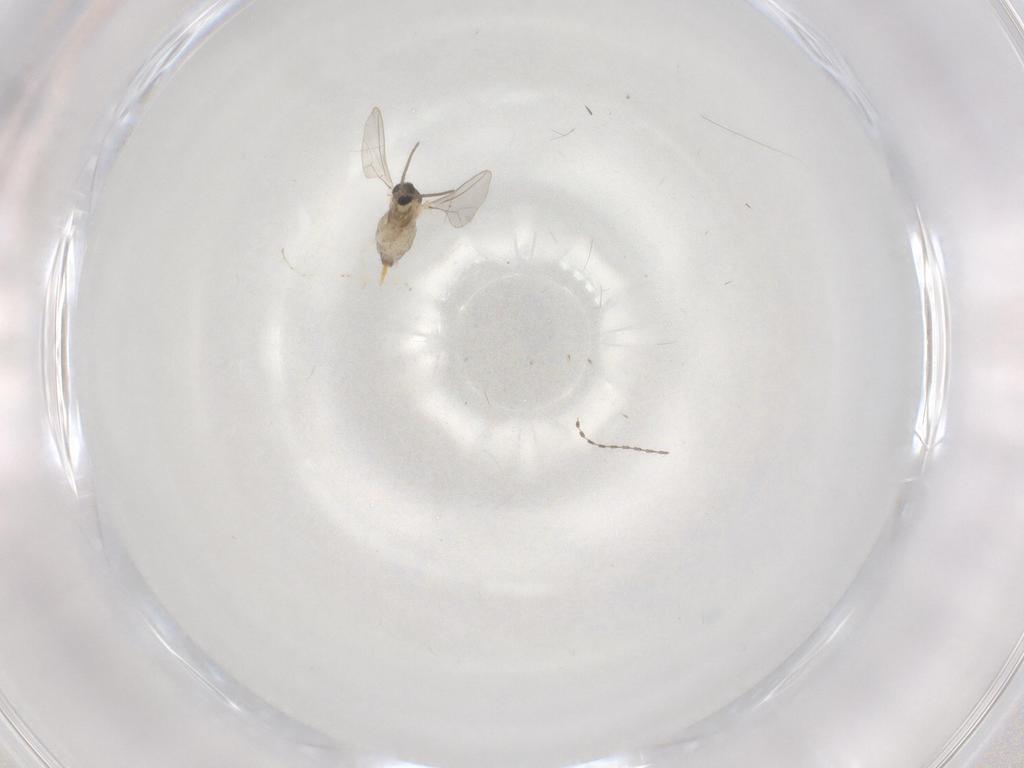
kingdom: Animalia
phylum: Arthropoda
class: Insecta
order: Diptera
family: Cecidomyiidae
